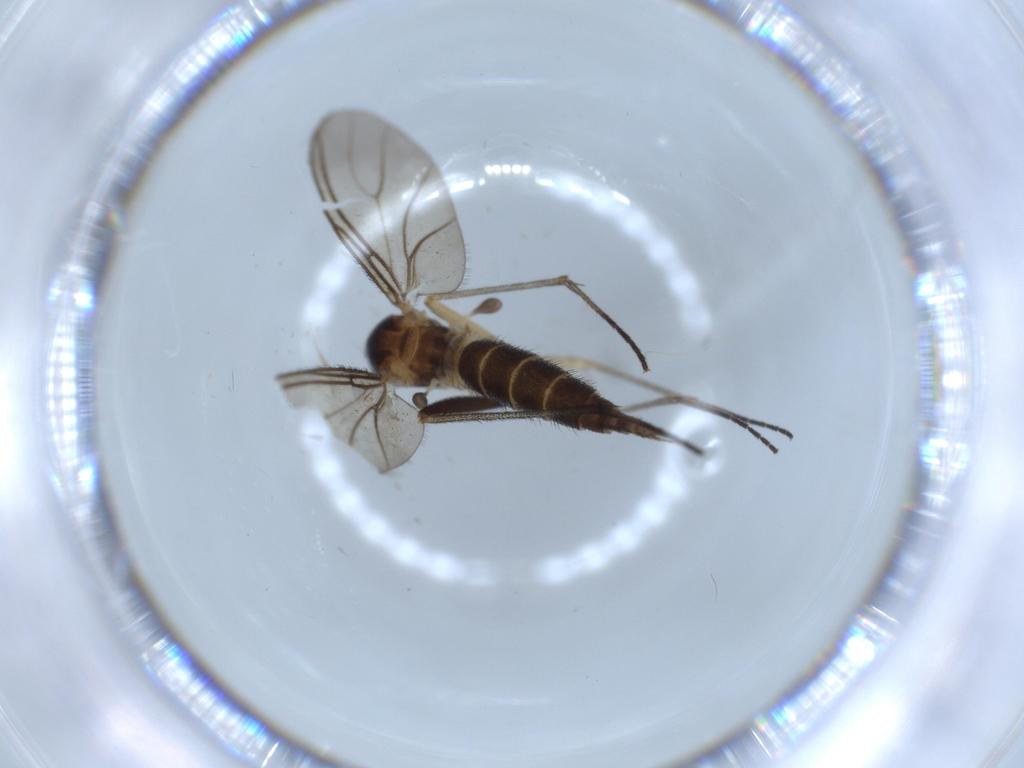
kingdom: Animalia
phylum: Arthropoda
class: Insecta
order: Diptera
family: Sciaridae
